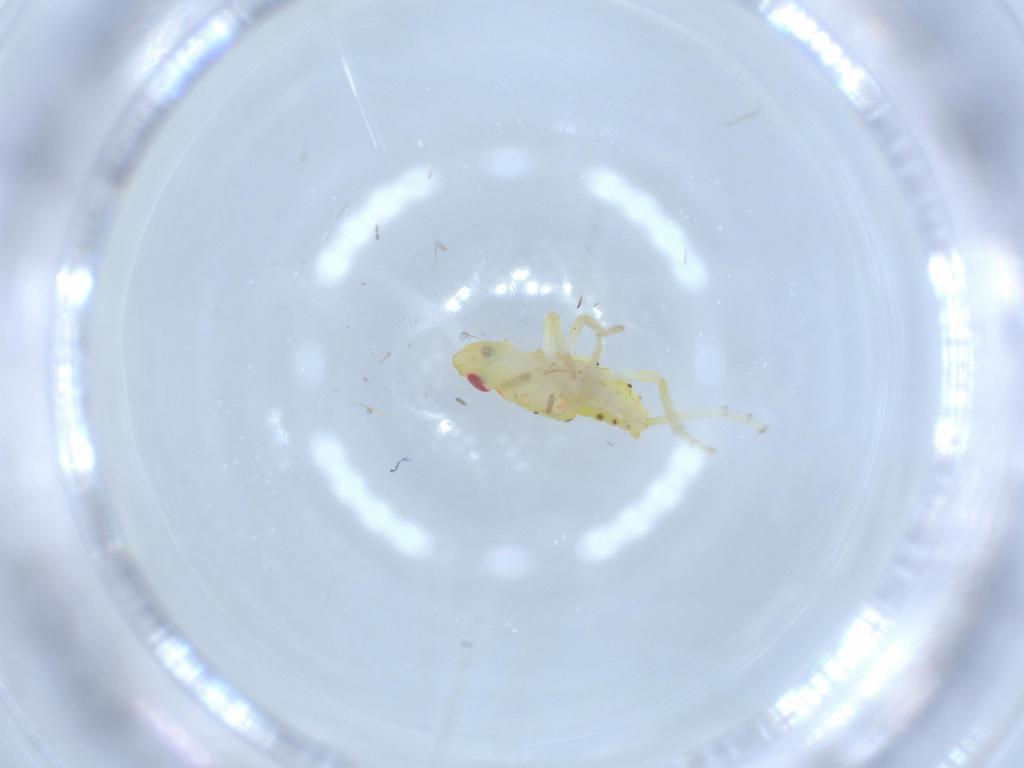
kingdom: Animalia
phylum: Arthropoda
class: Insecta
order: Hemiptera
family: Tropiduchidae
